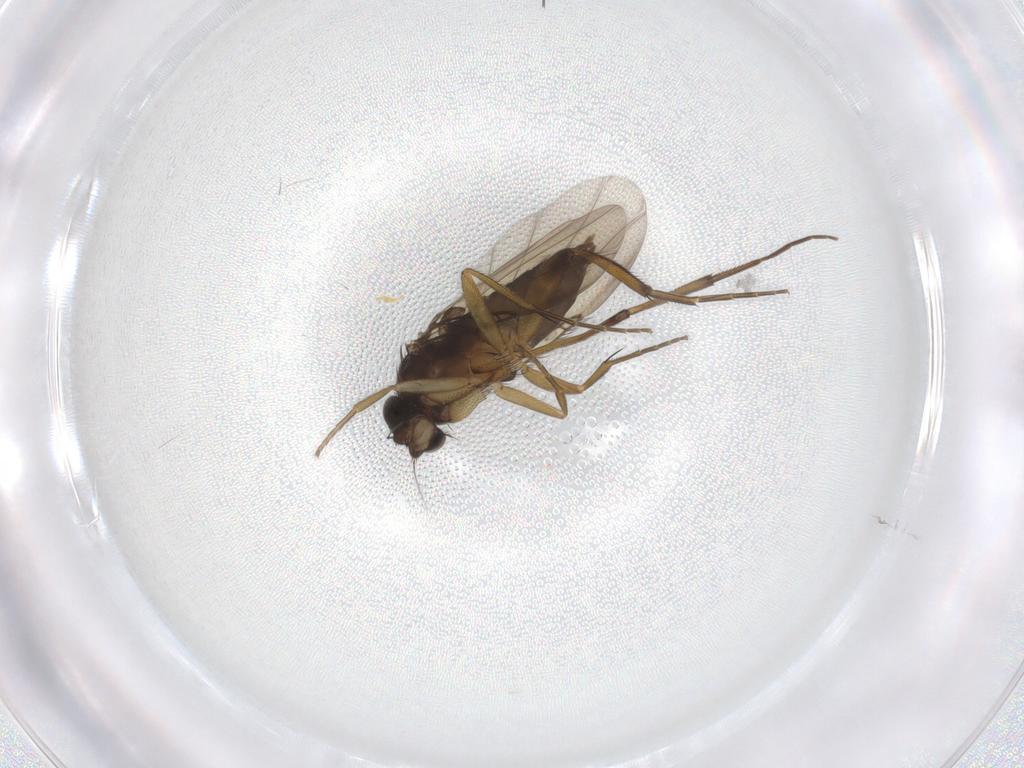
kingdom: Animalia
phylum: Arthropoda
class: Insecta
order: Diptera
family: Phoridae
